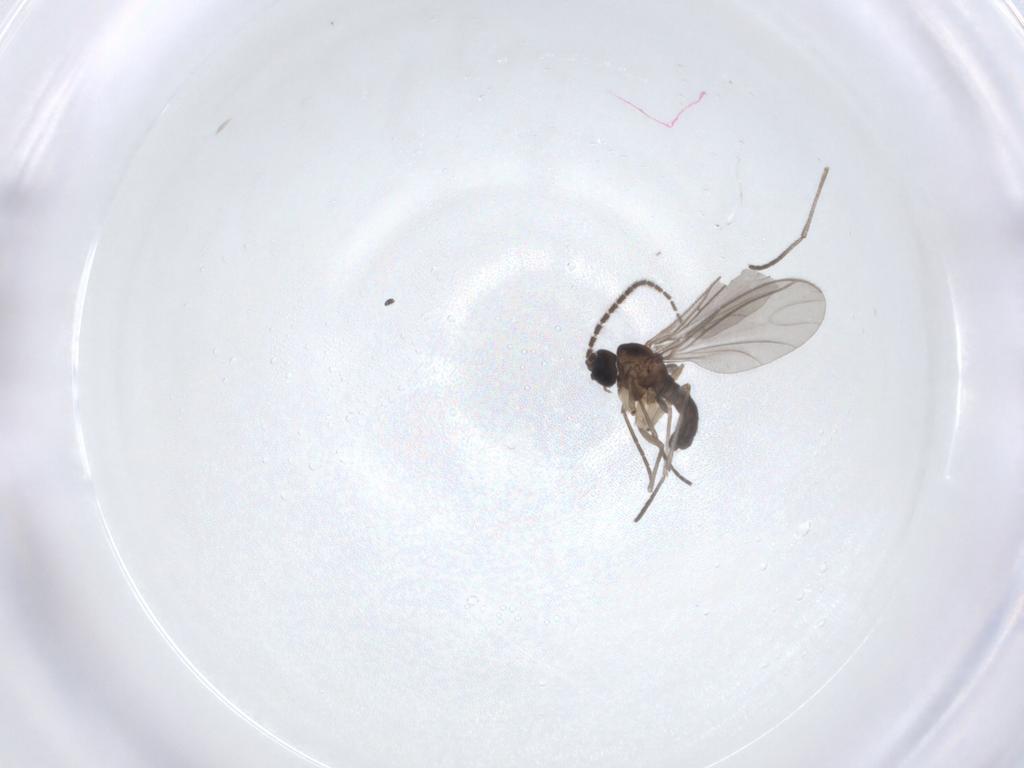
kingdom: Animalia
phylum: Arthropoda
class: Insecta
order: Diptera
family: Sciaridae
